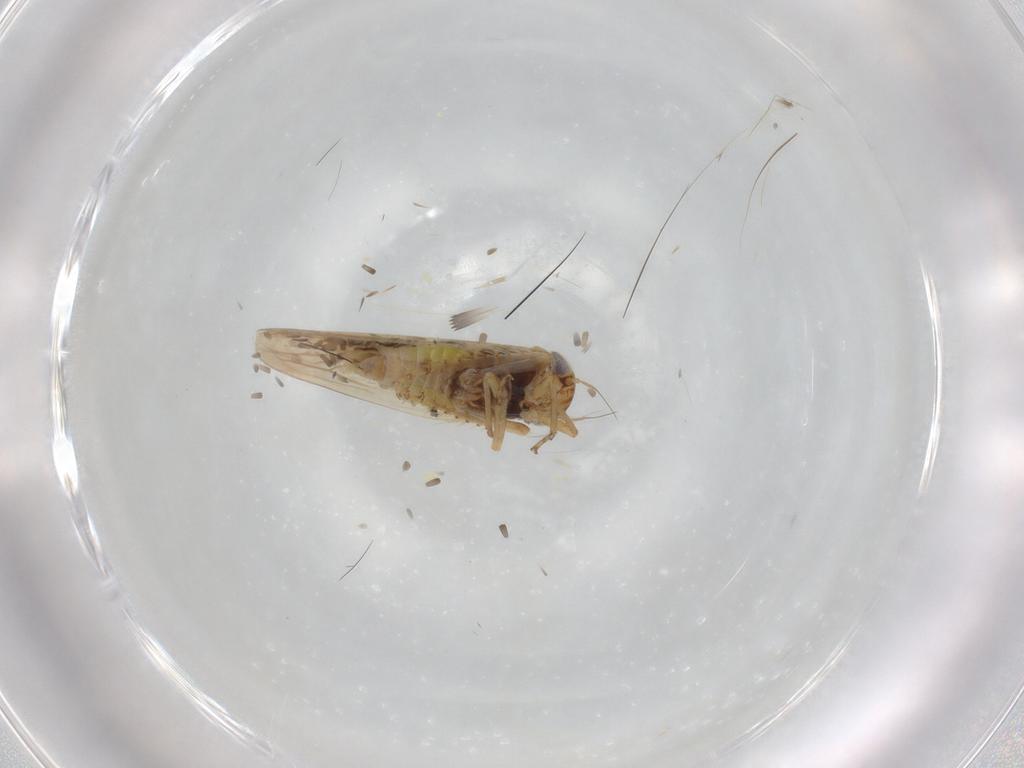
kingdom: Animalia
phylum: Arthropoda
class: Insecta
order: Hemiptera
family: Cicadellidae
